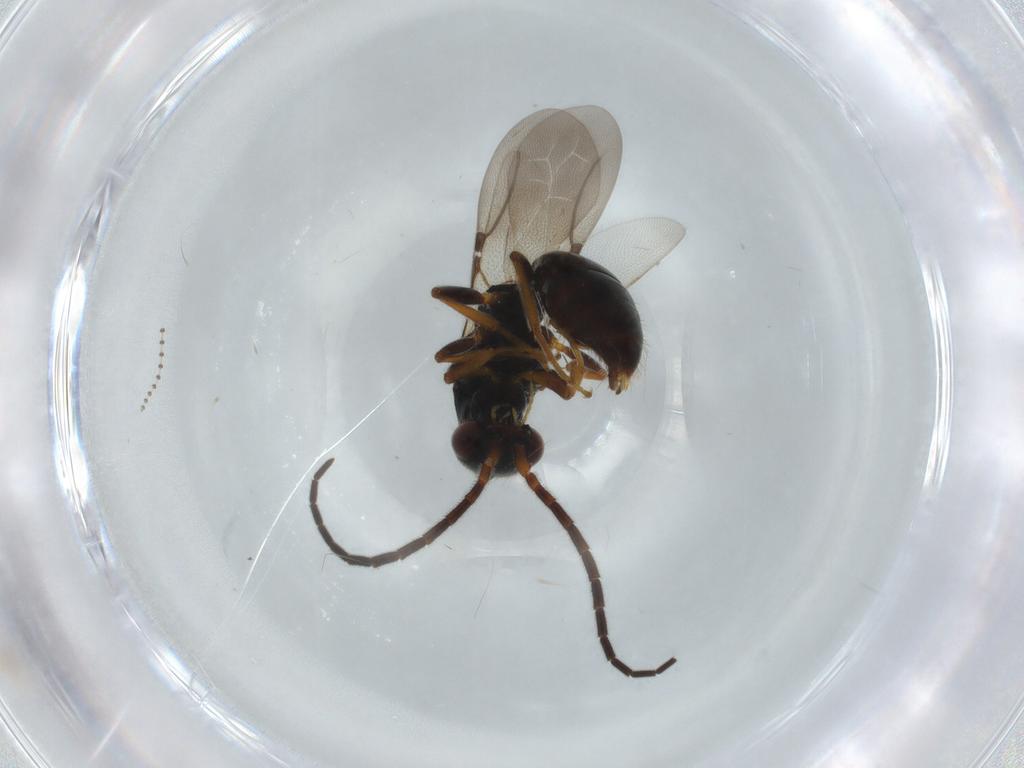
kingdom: Animalia
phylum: Arthropoda
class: Insecta
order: Hymenoptera
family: Bethylidae
